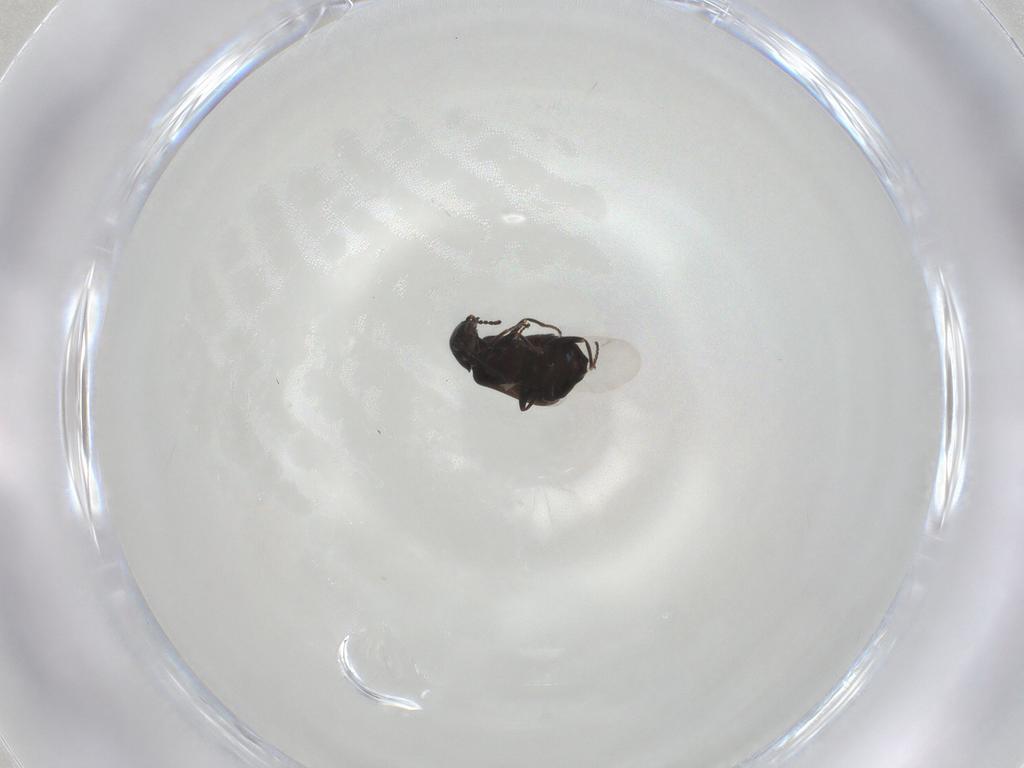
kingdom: Animalia
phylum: Arthropoda
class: Insecta
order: Coleoptera
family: Melyridae
